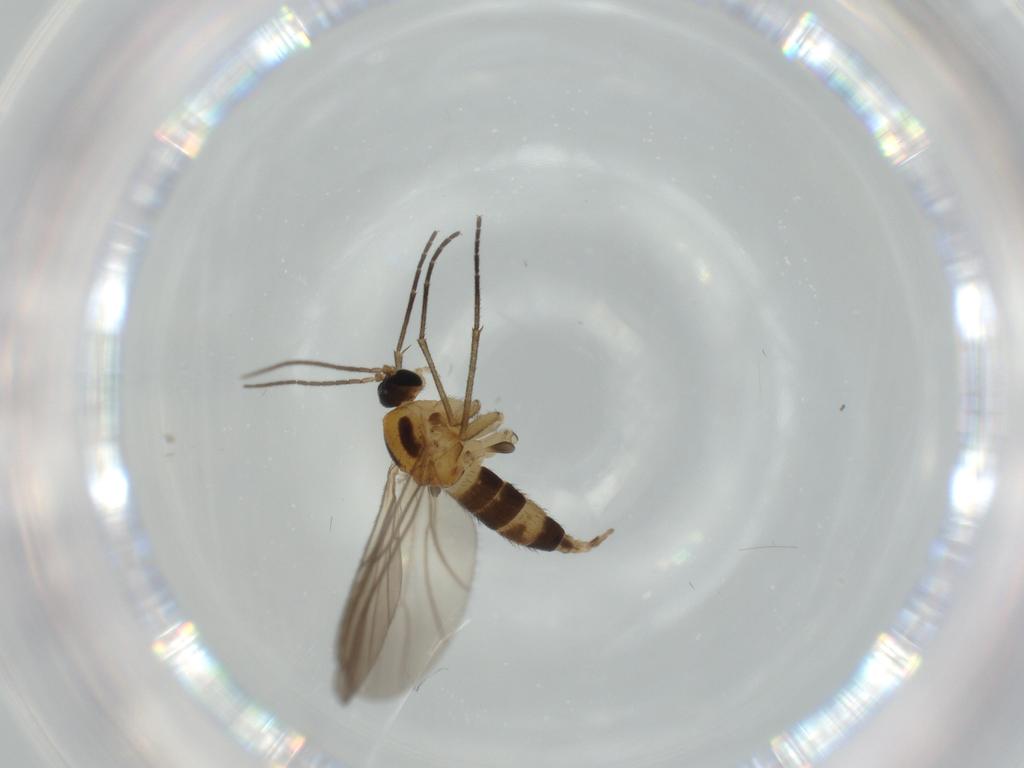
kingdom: Animalia
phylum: Arthropoda
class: Insecta
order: Diptera
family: Sciaridae
